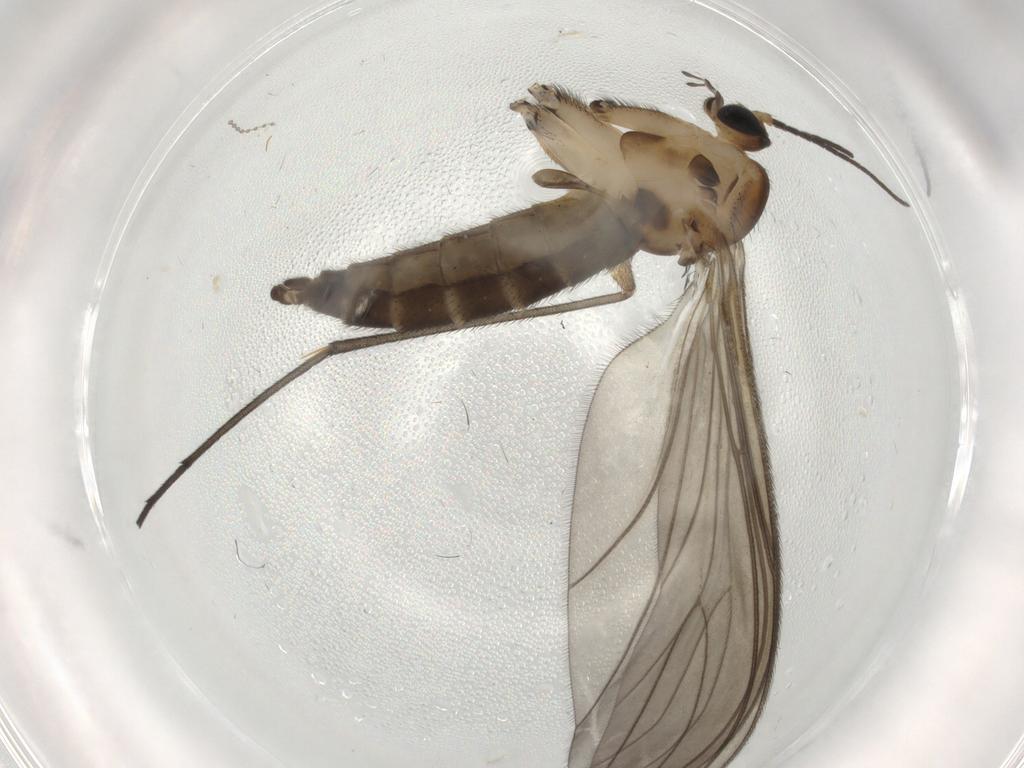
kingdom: Animalia
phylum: Arthropoda
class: Insecta
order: Diptera
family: Sciaridae
